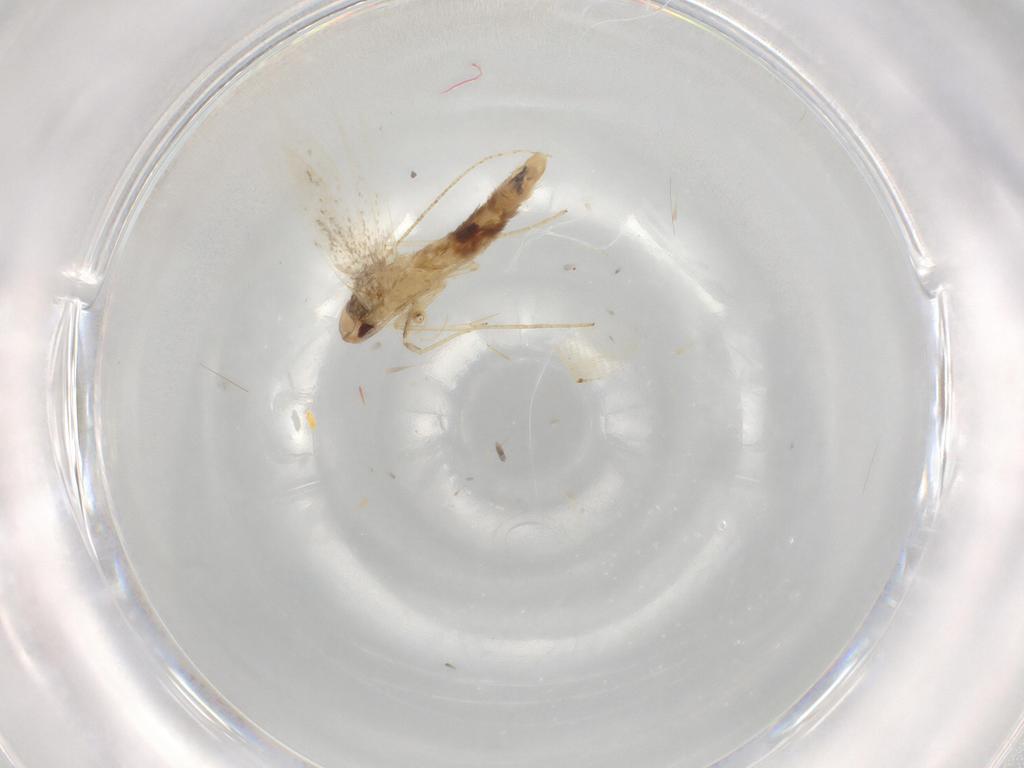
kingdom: Animalia
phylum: Arthropoda
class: Insecta
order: Lepidoptera
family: Cosmopterigidae
